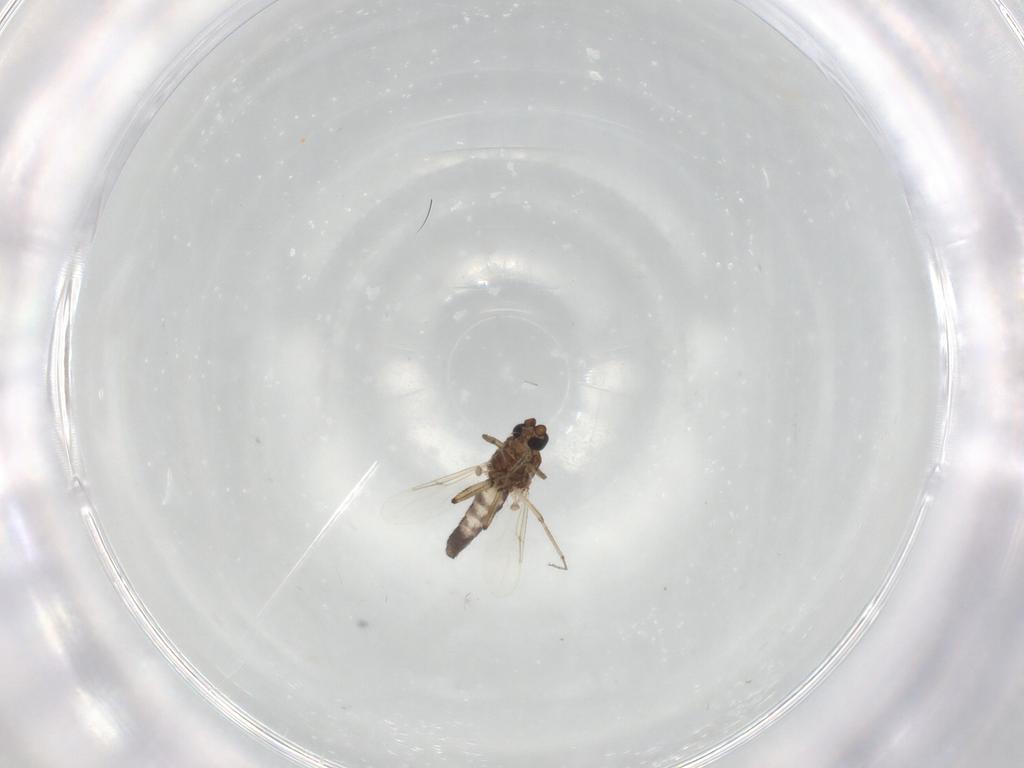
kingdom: Animalia
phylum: Arthropoda
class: Insecta
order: Diptera
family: Ceratopogonidae
